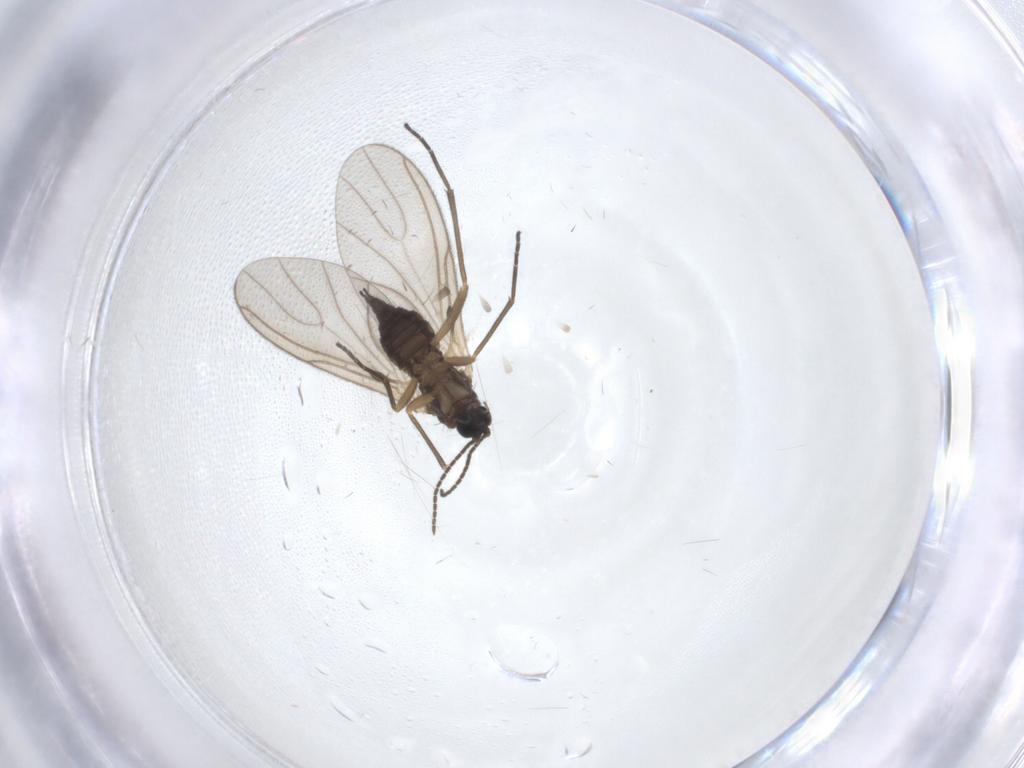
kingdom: Animalia
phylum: Arthropoda
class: Insecta
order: Diptera
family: Sciaridae
